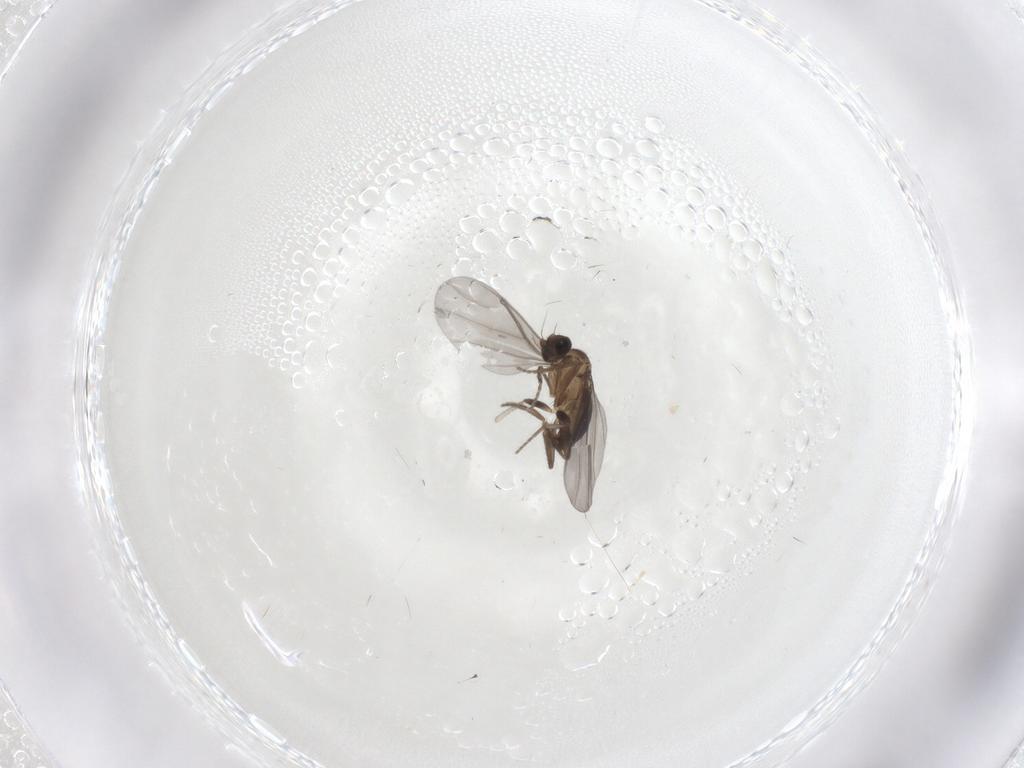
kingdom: Animalia
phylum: Arthropoda
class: Insecta
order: Diptera
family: Phoridae
